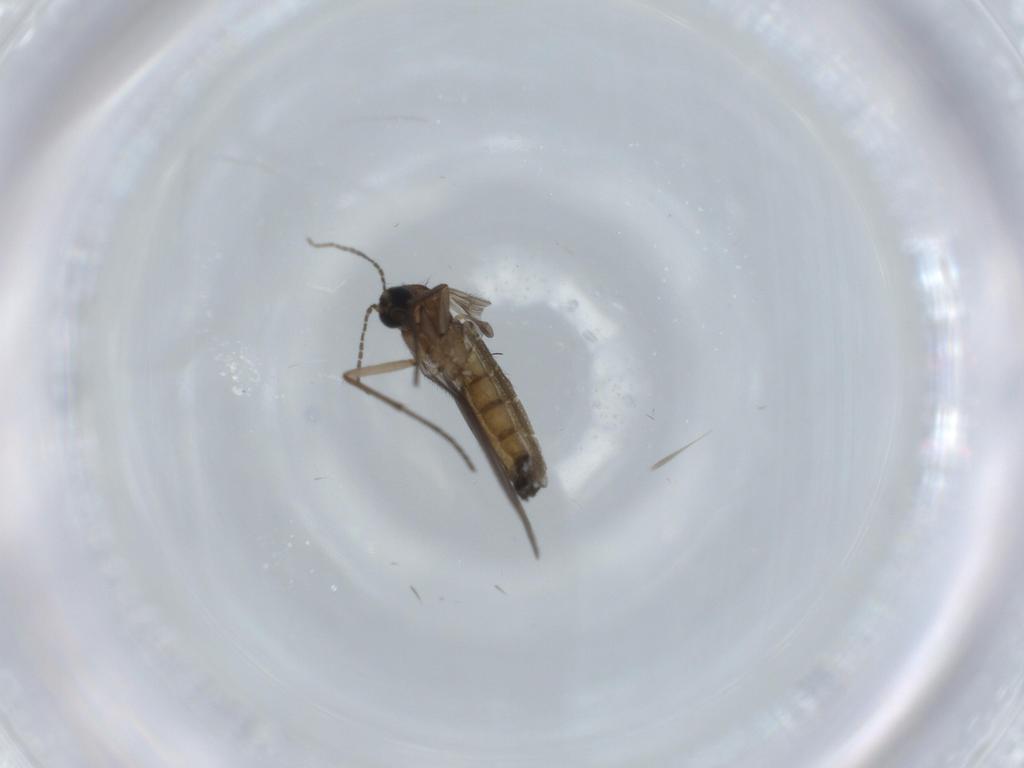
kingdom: Animalia
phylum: Arthropoda
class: Insecta
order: Diptera
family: Sciaridae
